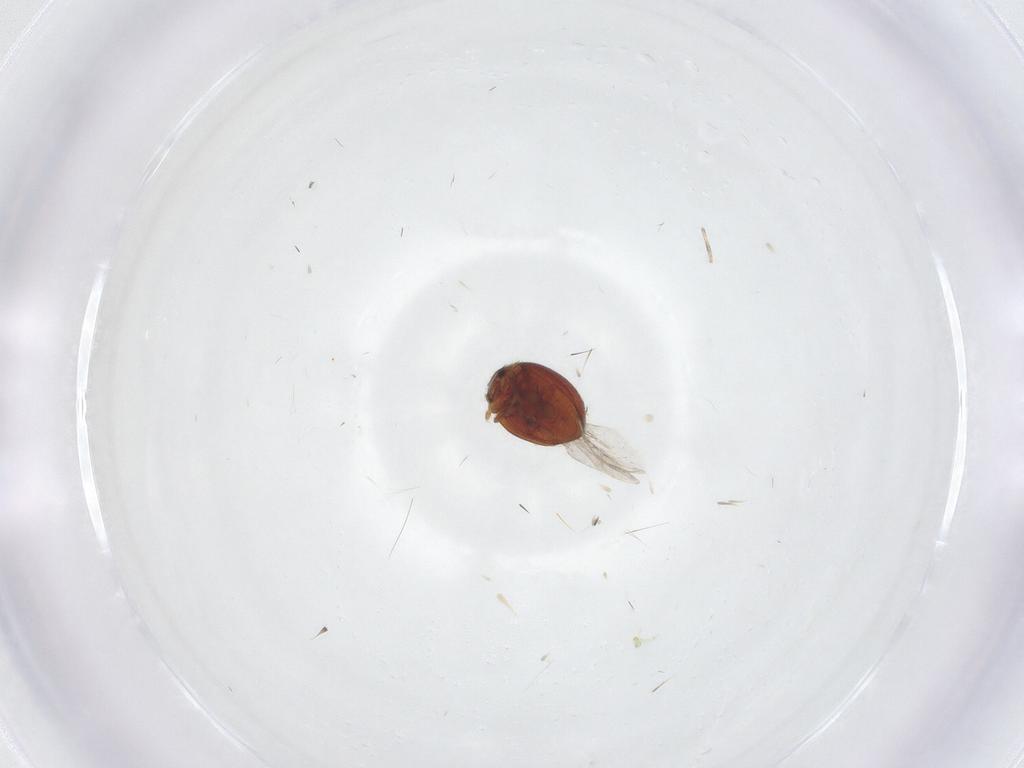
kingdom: Animalia
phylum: Arthropoda
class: Insecta
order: Coleoptera
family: Coccinellidae
